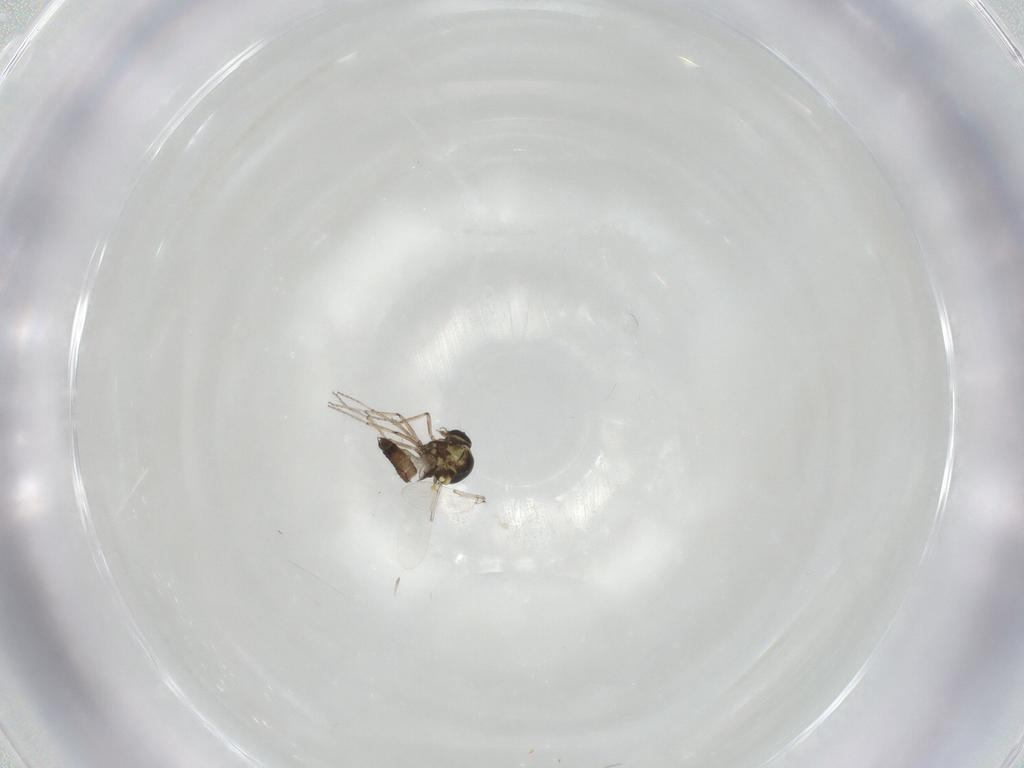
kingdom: Animalia
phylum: Arthropoda
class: Insecta
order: Diptera
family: Ceratopogonidae
